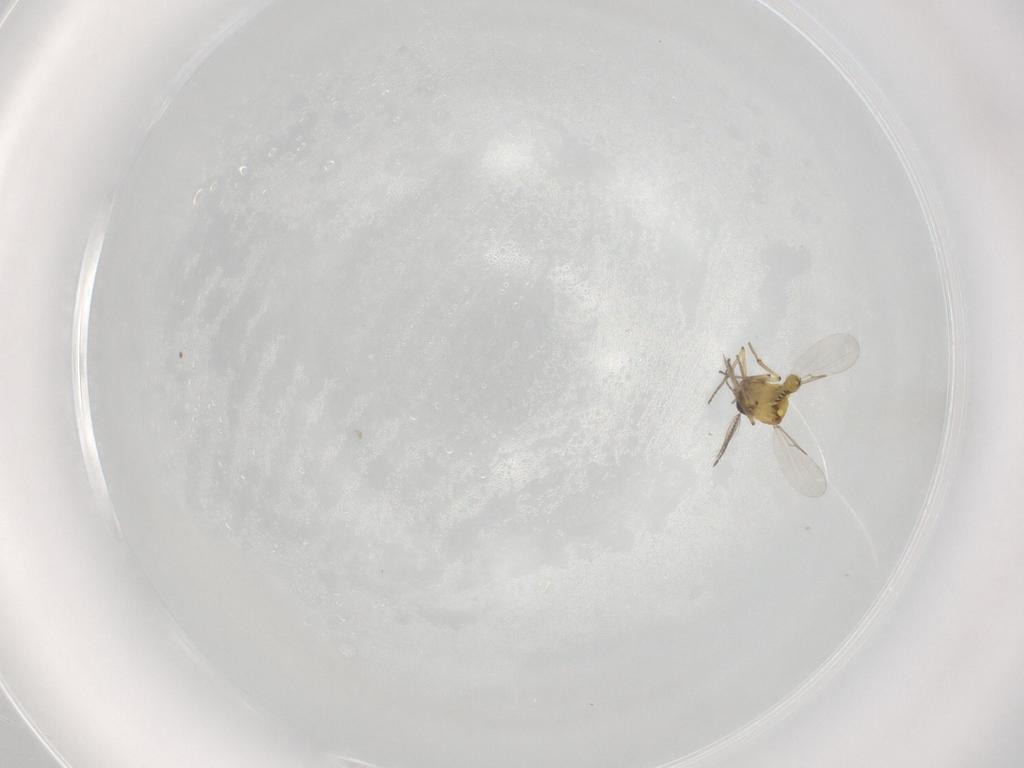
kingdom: Animalia
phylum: Arthropoda
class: Insecta
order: Diptera
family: Sciaridae
